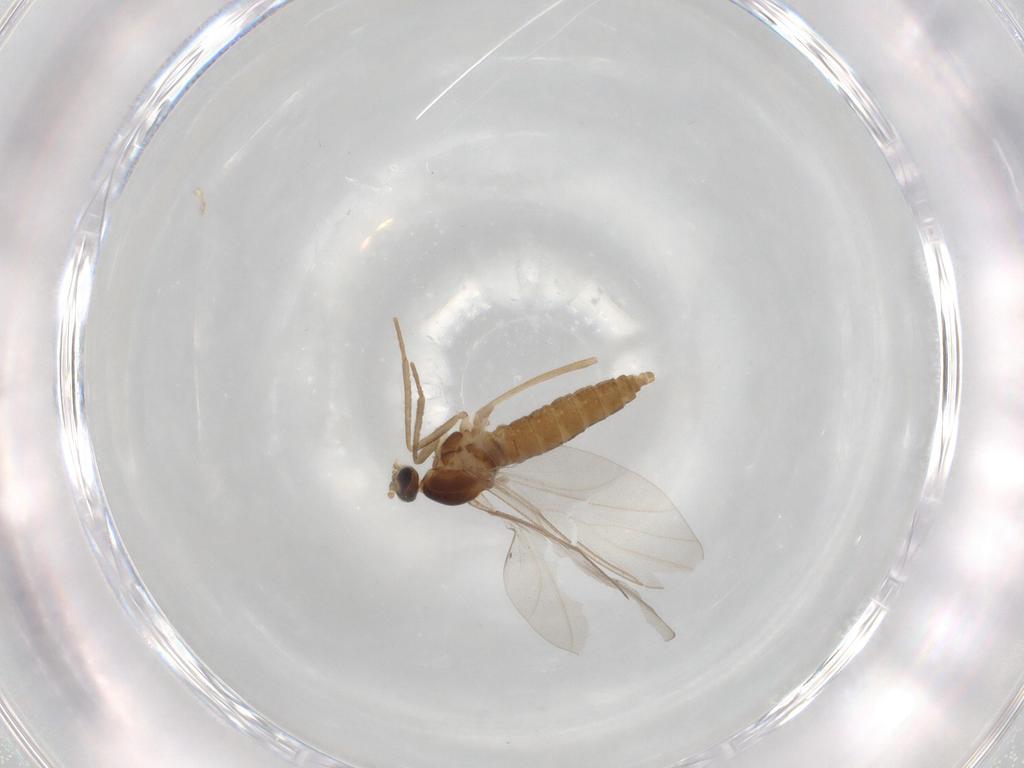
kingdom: Animalia
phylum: Arthropoda
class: Insecta
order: Diptera
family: Cecidomyiidae
